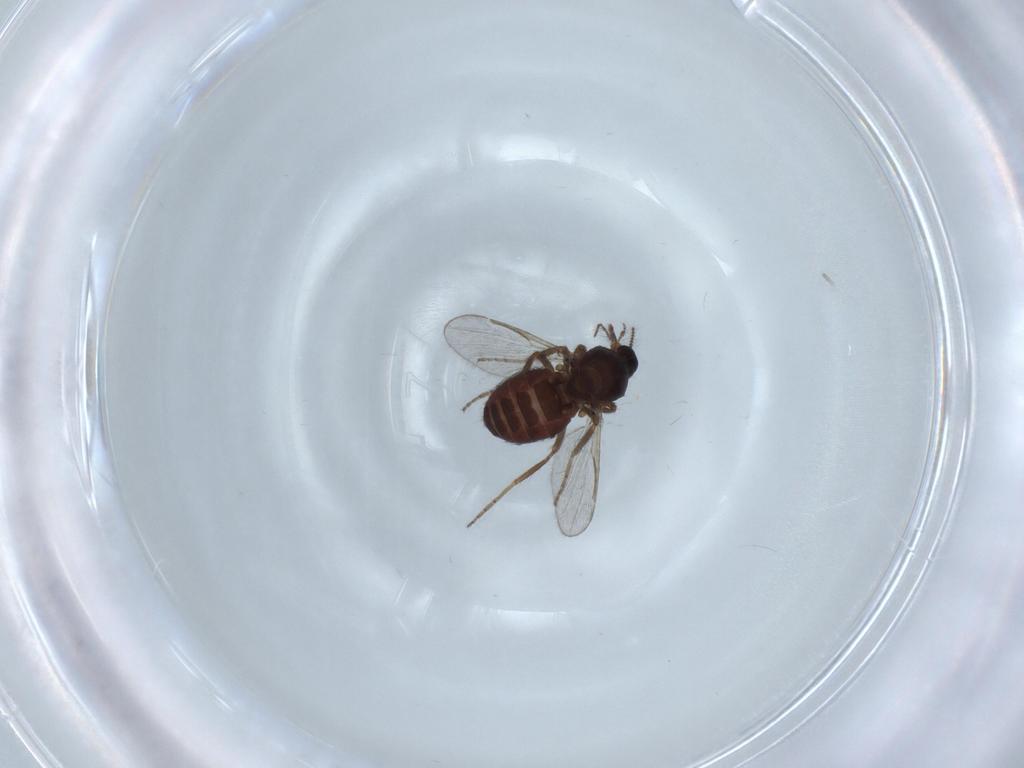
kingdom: Animalia
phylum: Arthropoda
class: Insecta
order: Diptera
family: Ceratopogonidae
